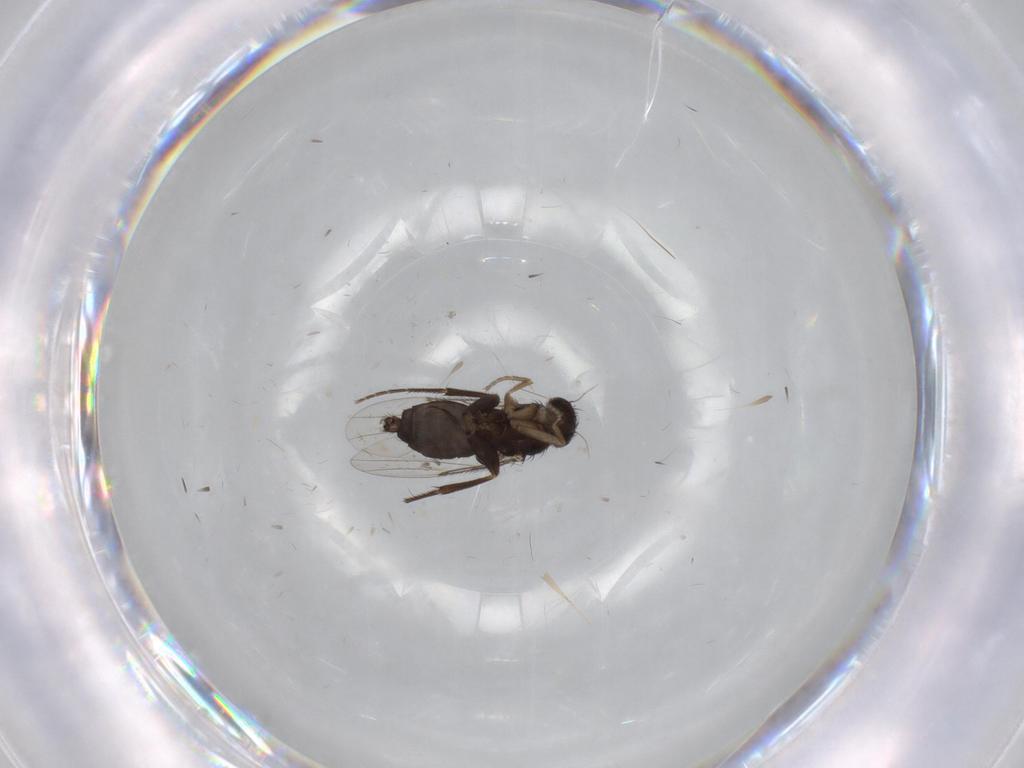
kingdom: Animalia
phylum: Arthropoda
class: Insecta
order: Diptera
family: Phoridae
